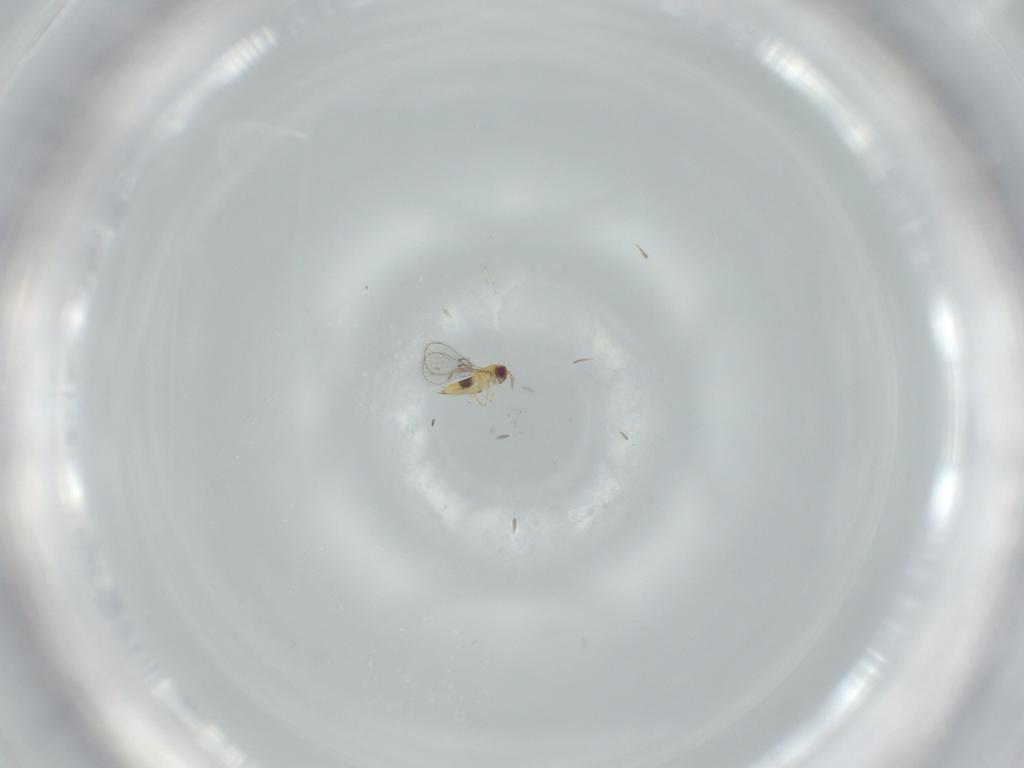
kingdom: Animalia
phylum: Arthropoda
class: Insecta
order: Hymenoptera
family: Trichogrammatidae
